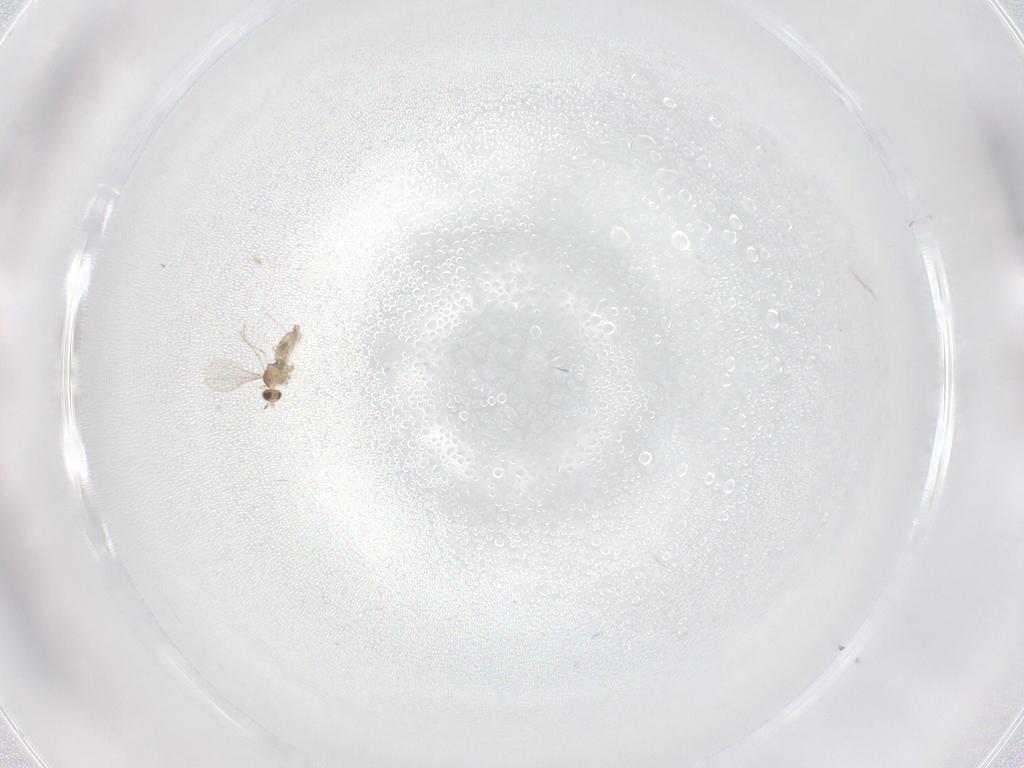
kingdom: Animalia
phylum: Arthropoda
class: Insecta
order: Diptera
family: Cecidomyiidae
